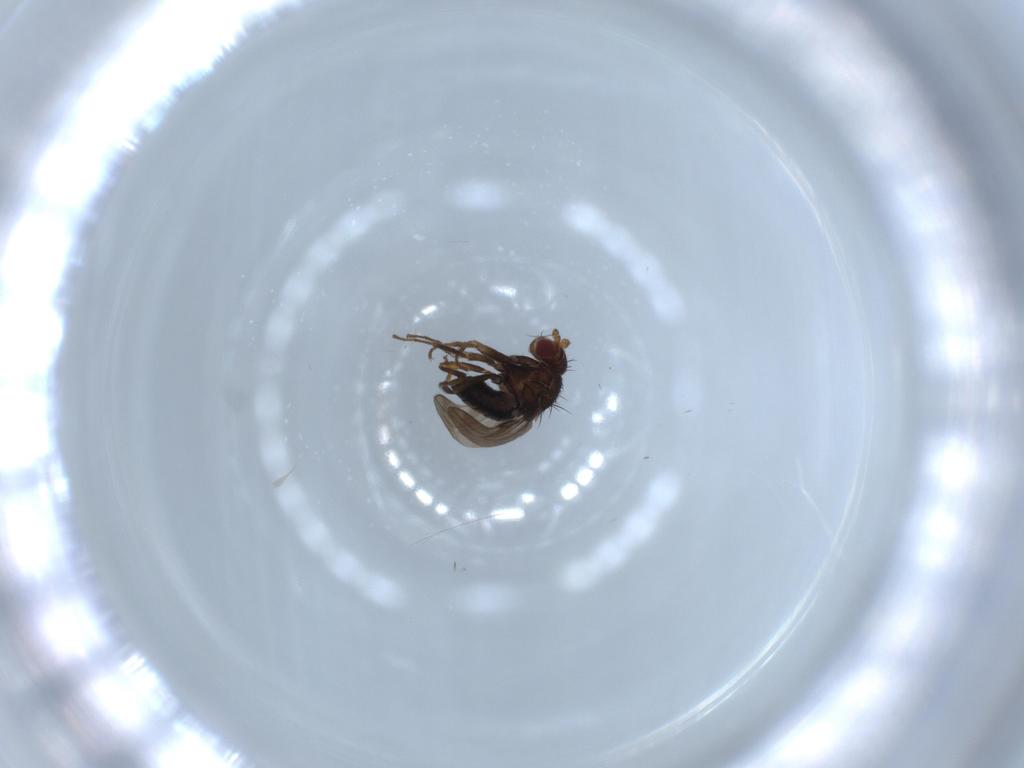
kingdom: Animalia
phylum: Arthropoda
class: Insecta
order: Diptera
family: Sphaeroceridae
